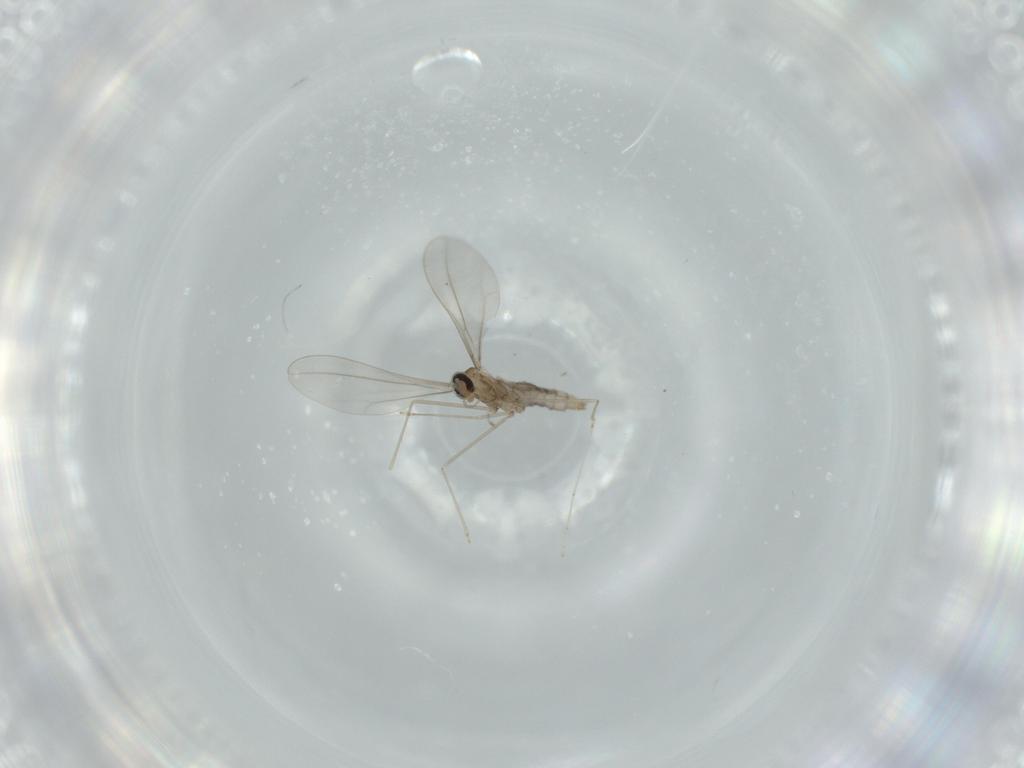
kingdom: Animalia
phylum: Arthropoda
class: Insecta
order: Diptera
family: Cecidomyiidae
